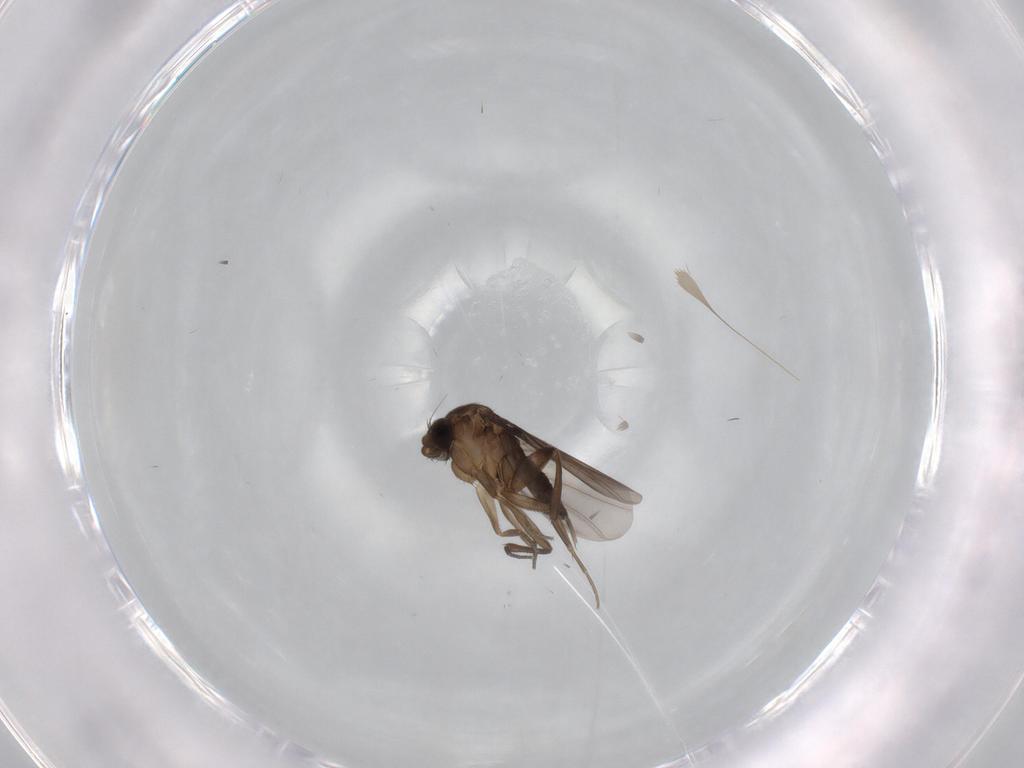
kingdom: Animalia
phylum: Arthropoda
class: Insecta
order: Diptera
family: Phoridae
